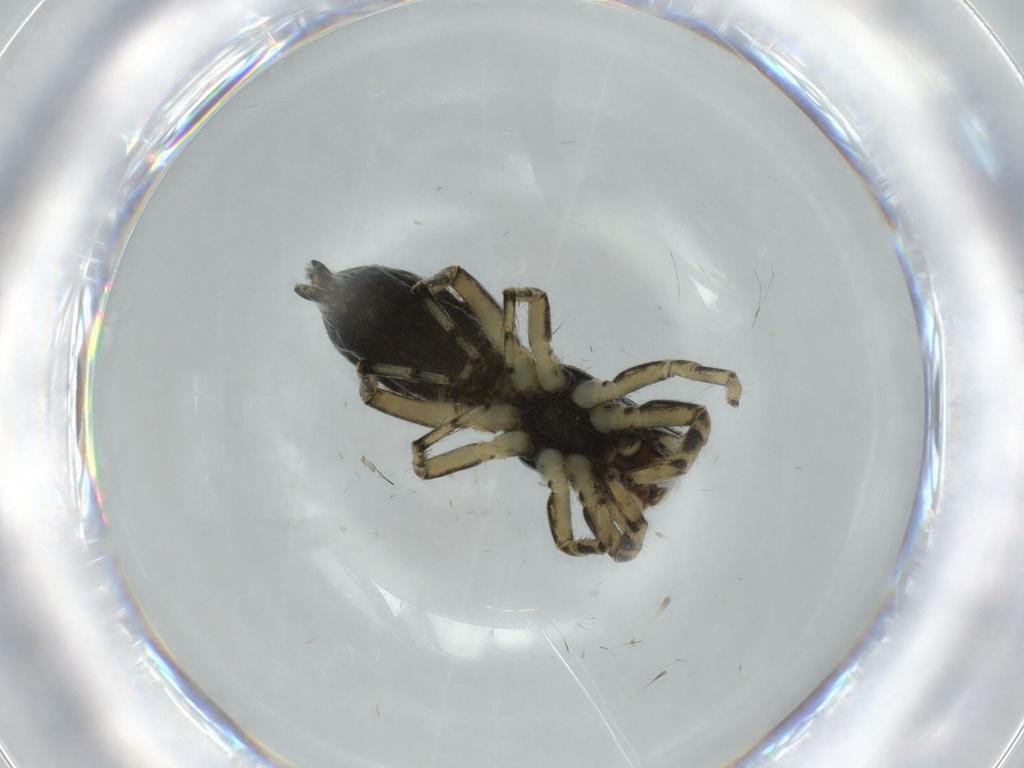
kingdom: Animalia
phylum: Arthropoda
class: Arachnida
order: Araneae
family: Salticidae
